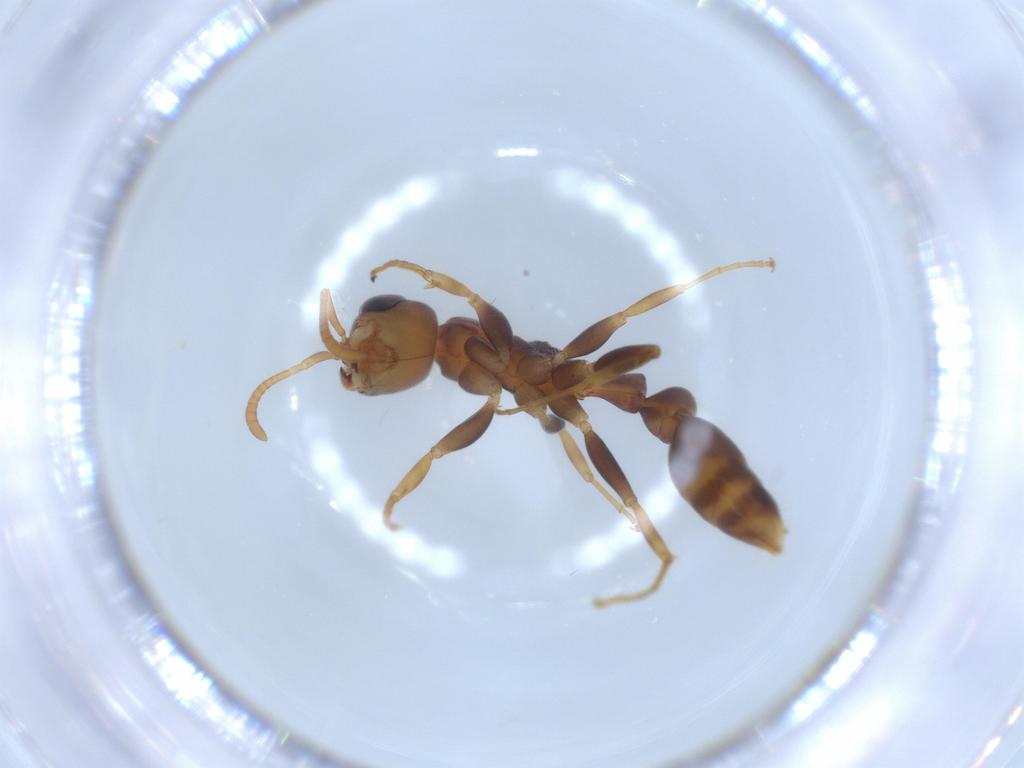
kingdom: Animalia
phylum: Arthropoda
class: Insecta
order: Hymenoptera
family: Formicidae
